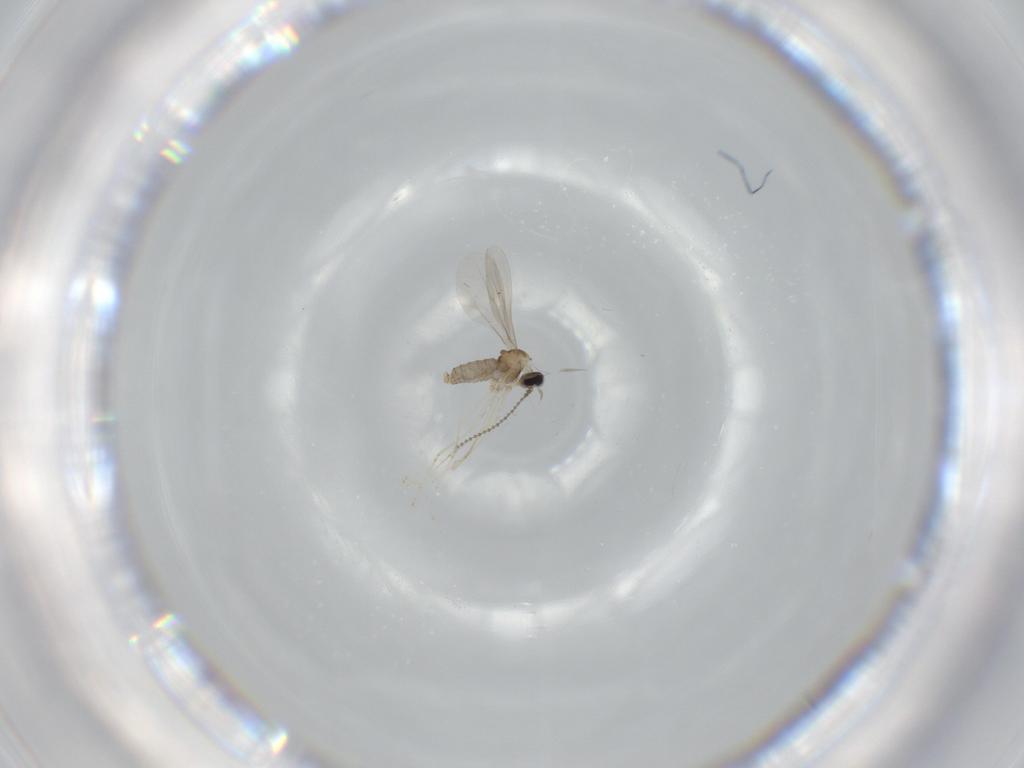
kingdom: Animalia
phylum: Arthropoda
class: Insecta
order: Diptera
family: Cecidomyiidae
